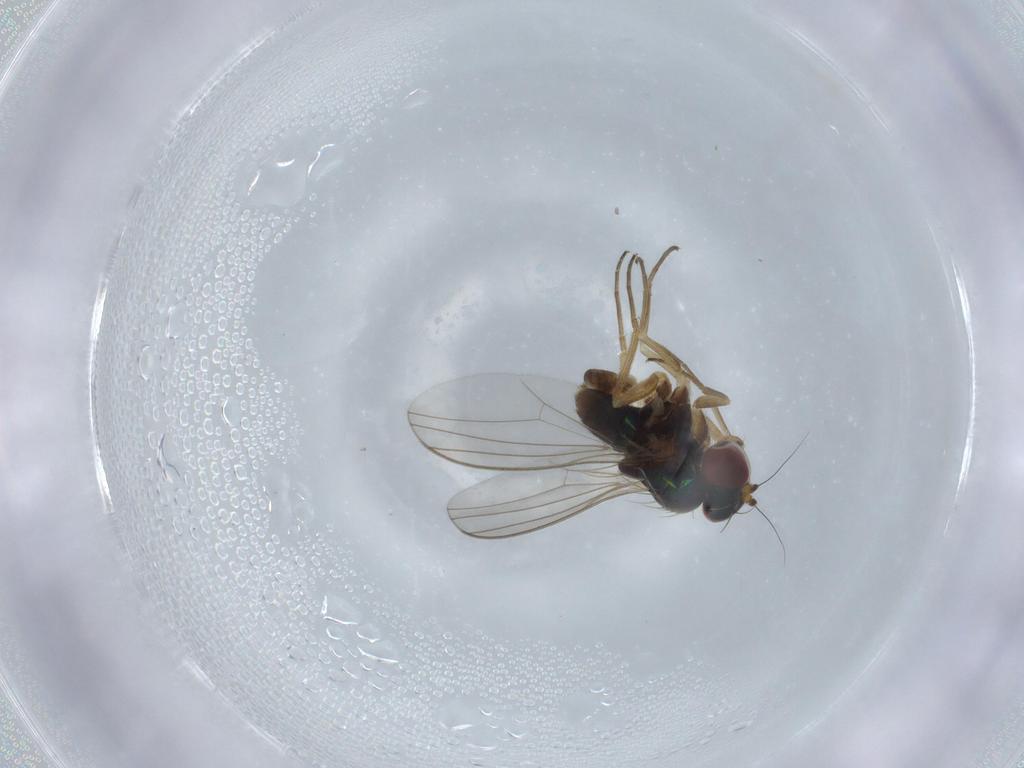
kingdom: Animalia
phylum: Arthropoda
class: Insecta
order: Diptera
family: Dolichopodidae
